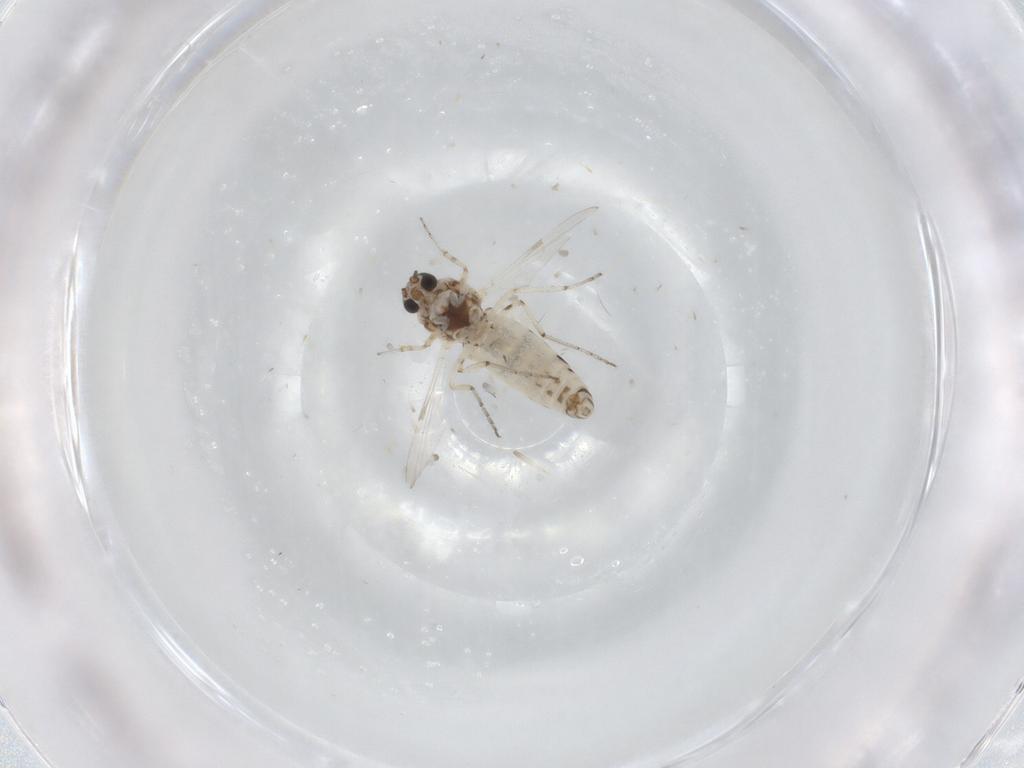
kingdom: Animalia
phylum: Arthropoda
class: Insecta
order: Diptera
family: Ceratopogonidae
